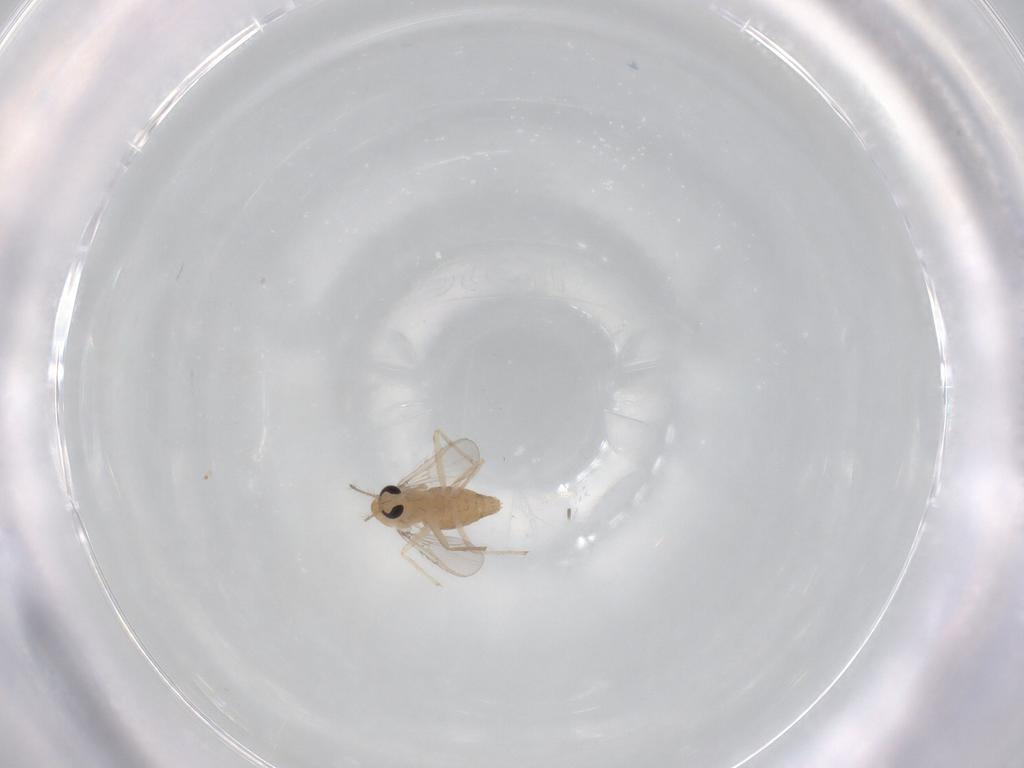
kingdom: Animalia
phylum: Arthropoda
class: Insecta
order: Diptera
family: Chironomidae
